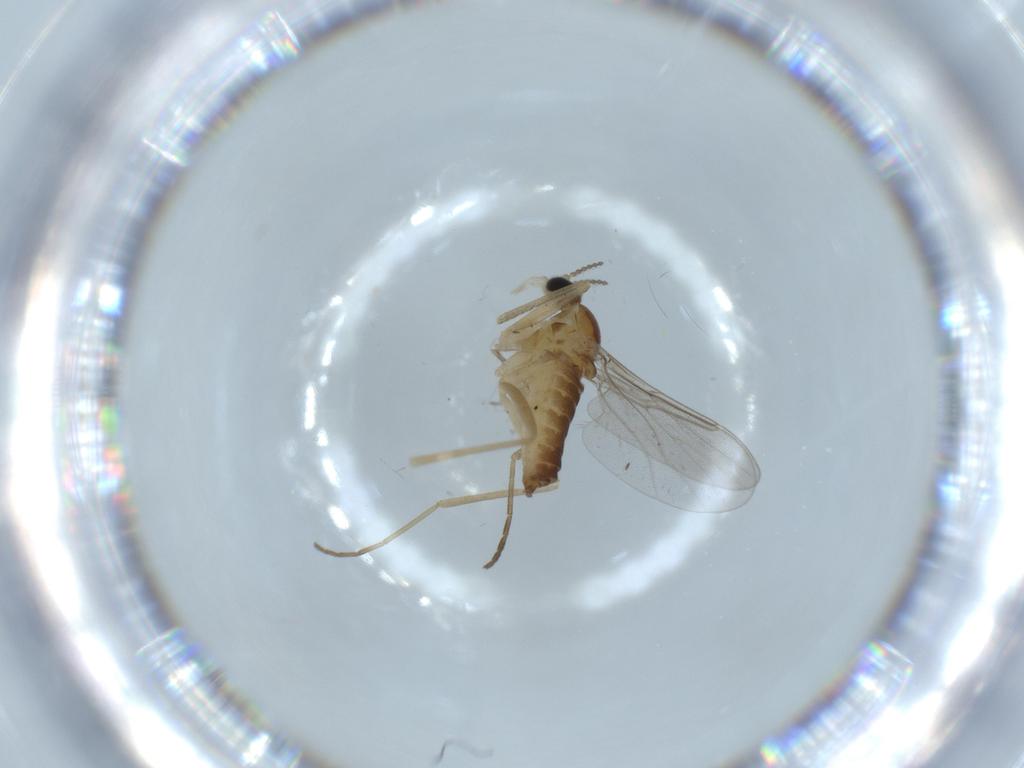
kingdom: Animalia
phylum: Arthropoda
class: Insecta
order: Diptera
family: Cecidomyiidae
